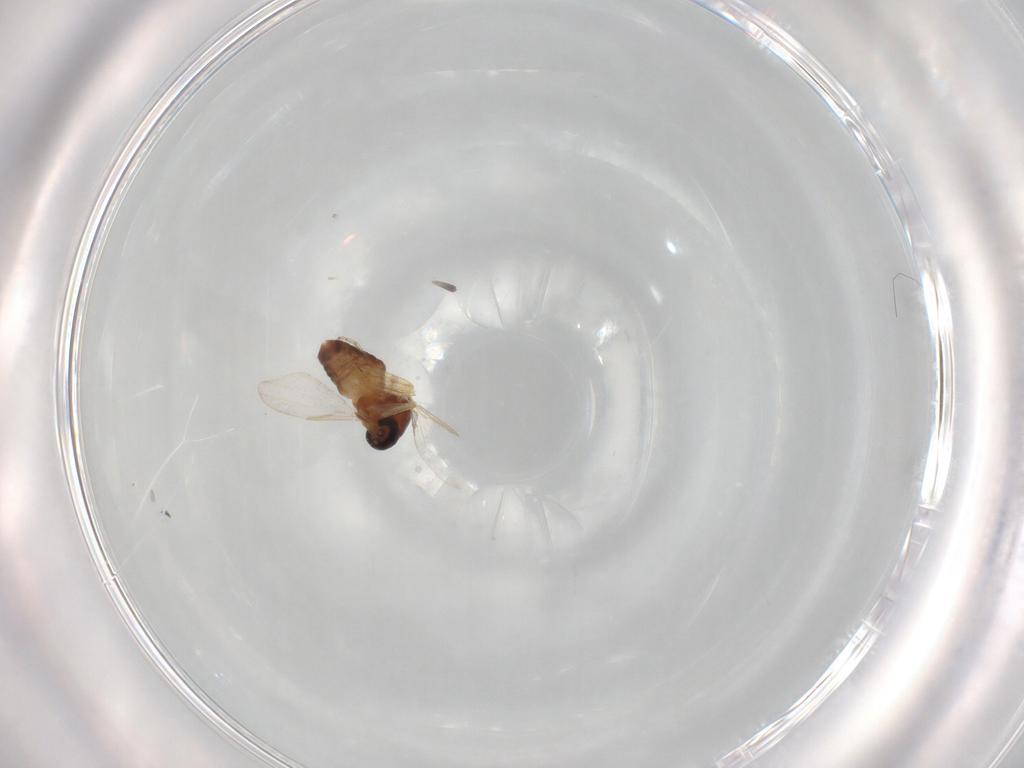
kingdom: Animalia
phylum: Arthropoda
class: Insecta
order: Diptera
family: Ceratopogonidae
